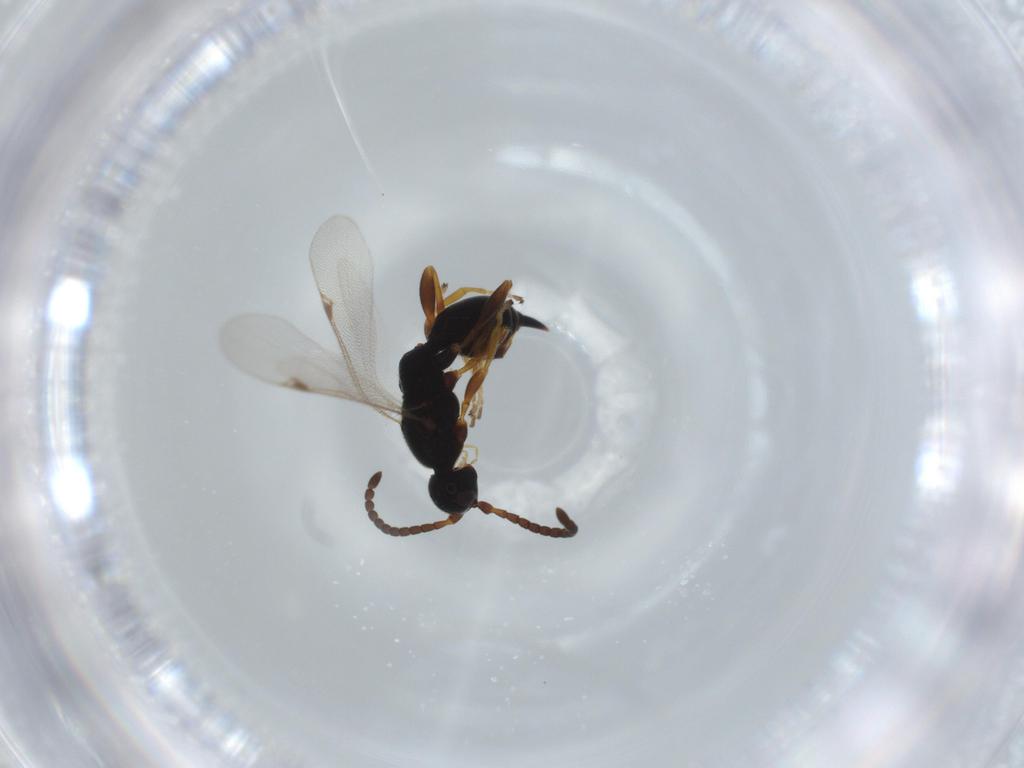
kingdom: Animalia
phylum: Arthropoda
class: Insecta
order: Hymenoptera
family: Proctotrupidae
